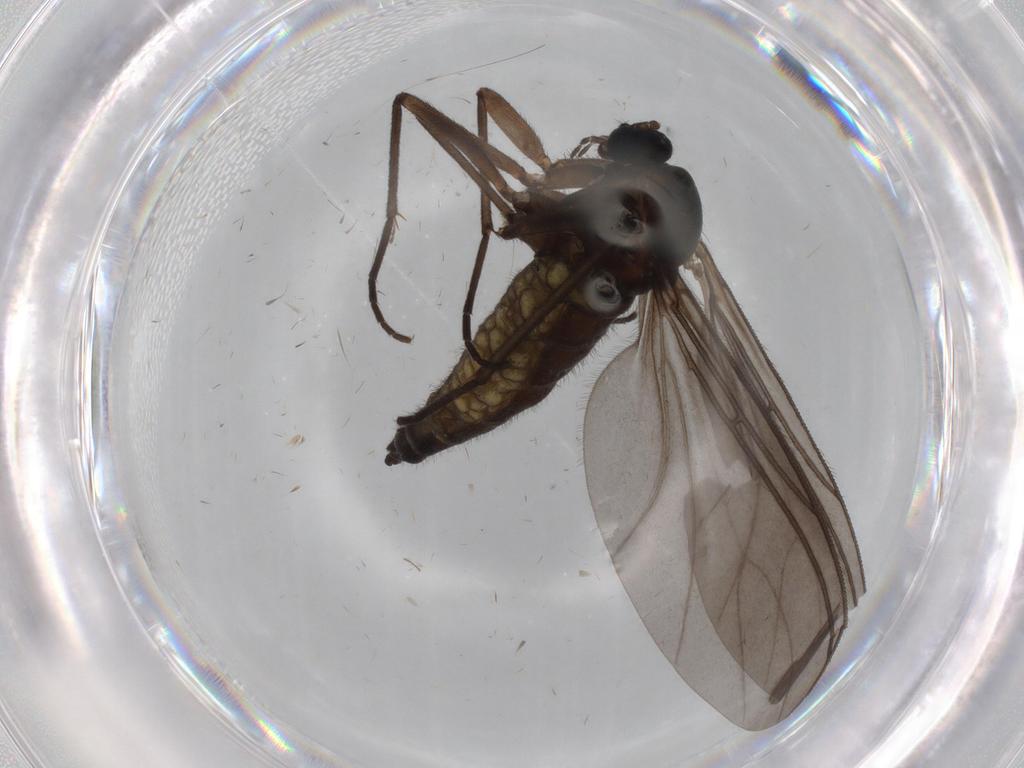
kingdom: Animalia
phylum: Arthropoda
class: Insecta
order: Diptera
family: Sciaridae
